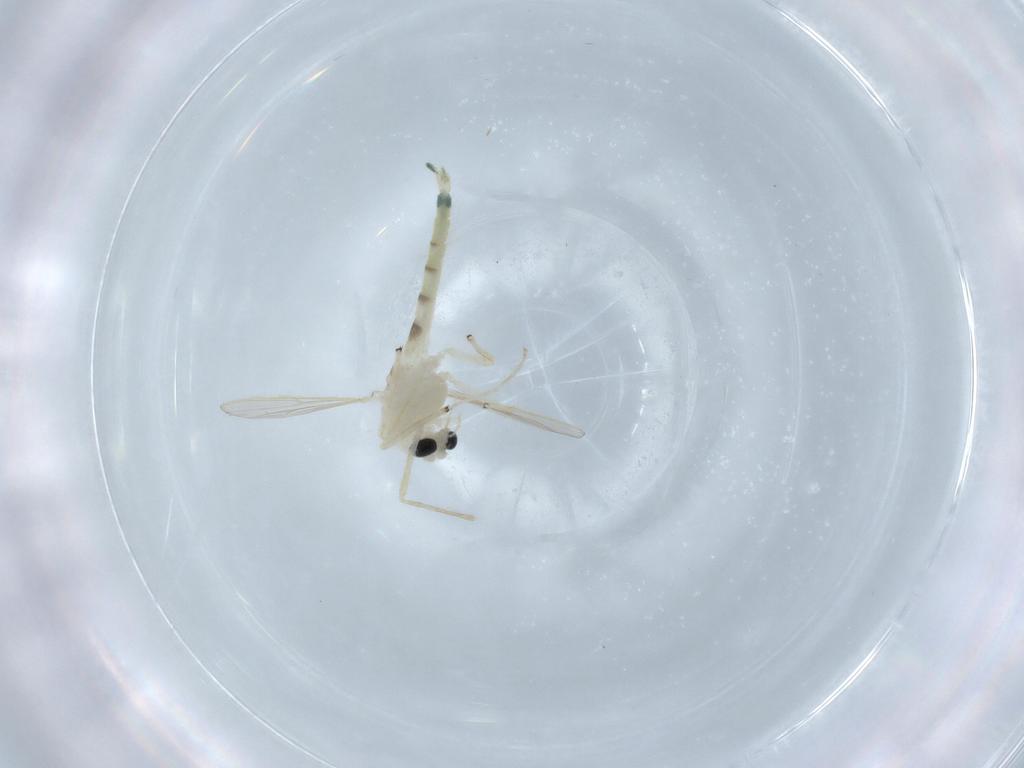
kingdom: Animalia
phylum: Arthropoda
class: Insecta
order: Diptera
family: Chironomidae
